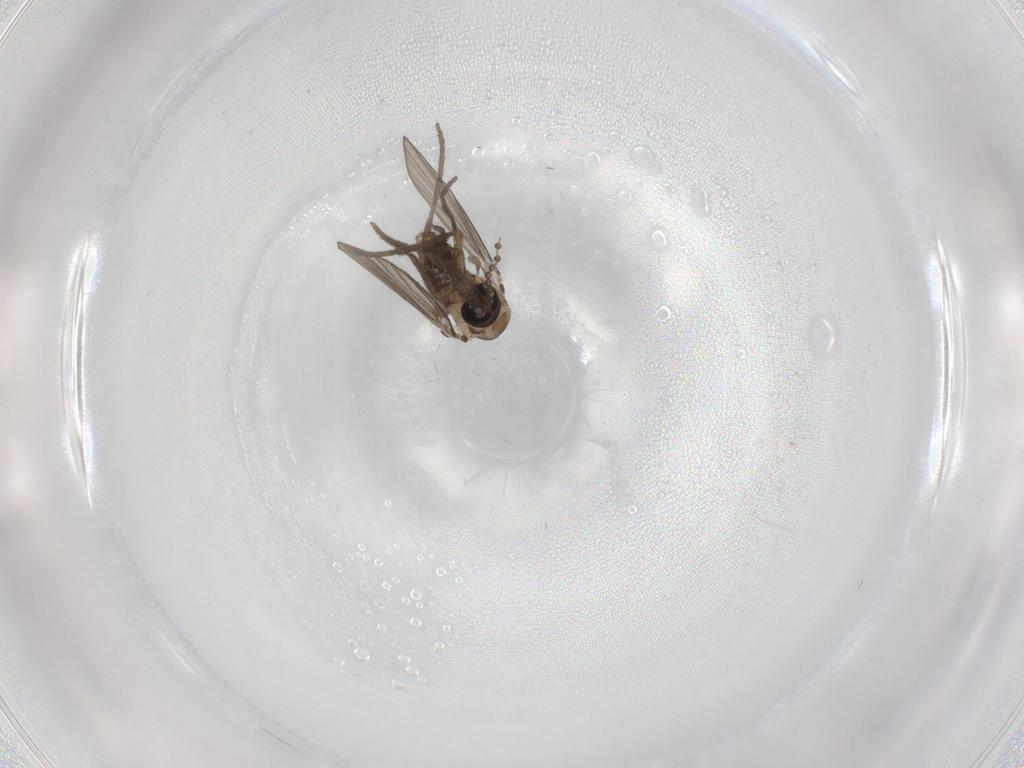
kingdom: Animalia
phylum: Arthropoda
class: Insecta
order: Diptera
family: Psychodidae
